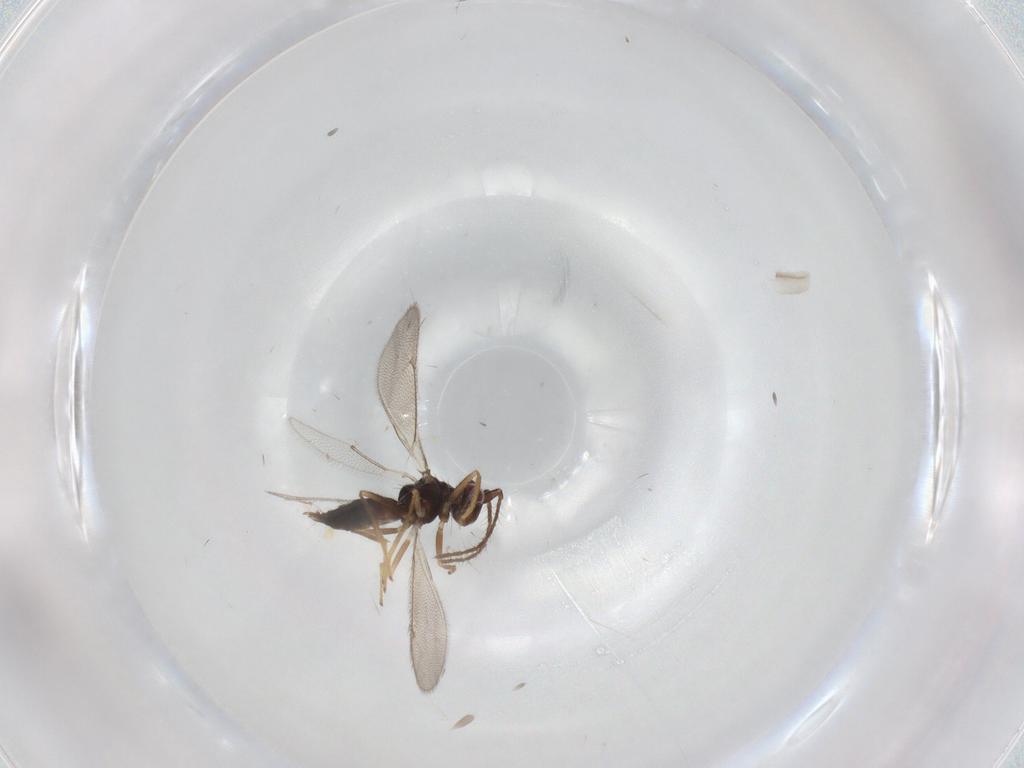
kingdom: Animalia
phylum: Arthropoda
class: Insecta
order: Hymenoptera
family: Eulophidae
